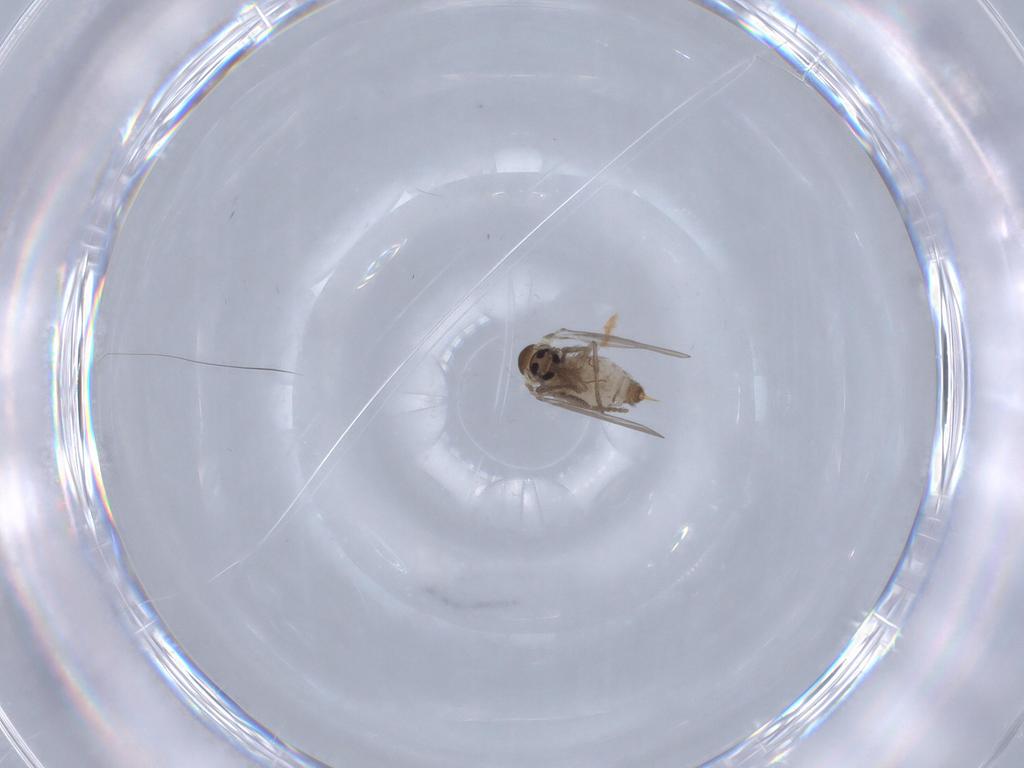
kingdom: Animalia
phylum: Arthropoda
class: Insecta
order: Diptera
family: Psychodidae
